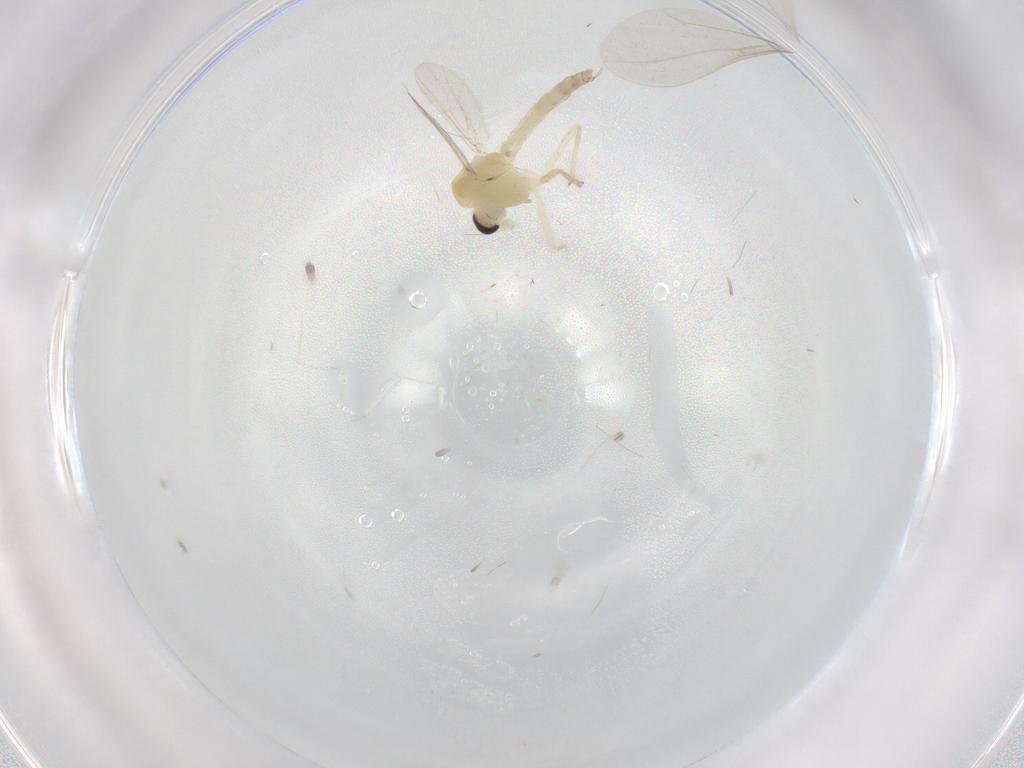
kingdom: Animalia
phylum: Arthropoda
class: Insecta
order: Diptera
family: Chironomidae
